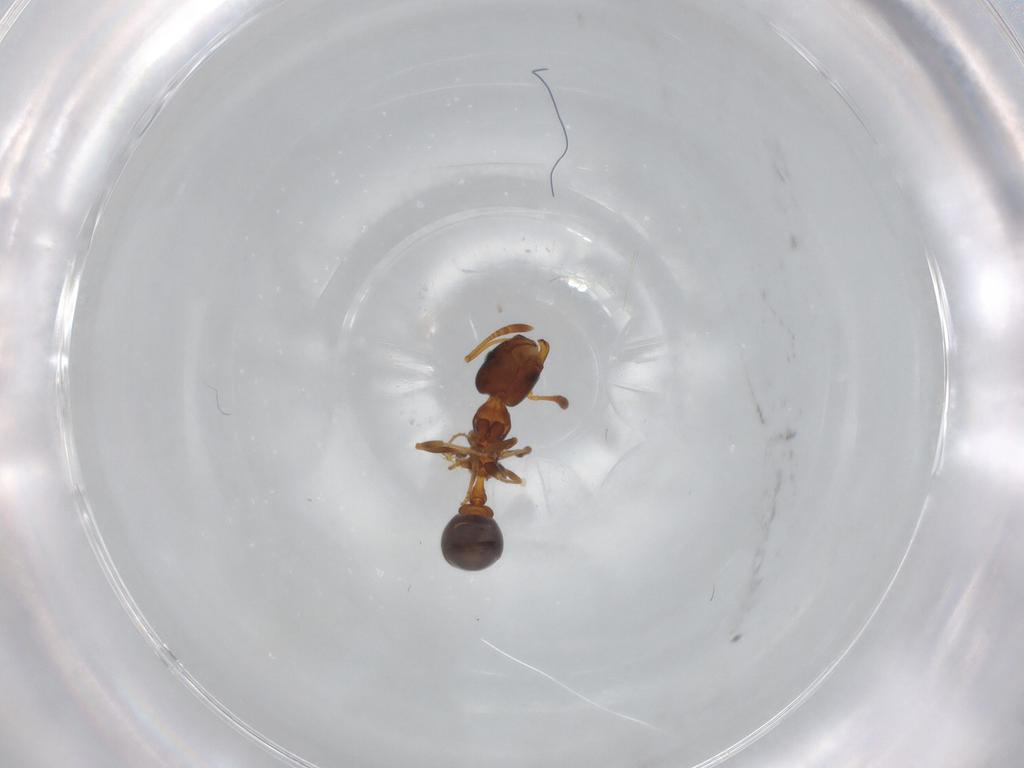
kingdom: Animalia
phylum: Arthropoda
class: Insecta
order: Hymenoptera
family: Formicidae
